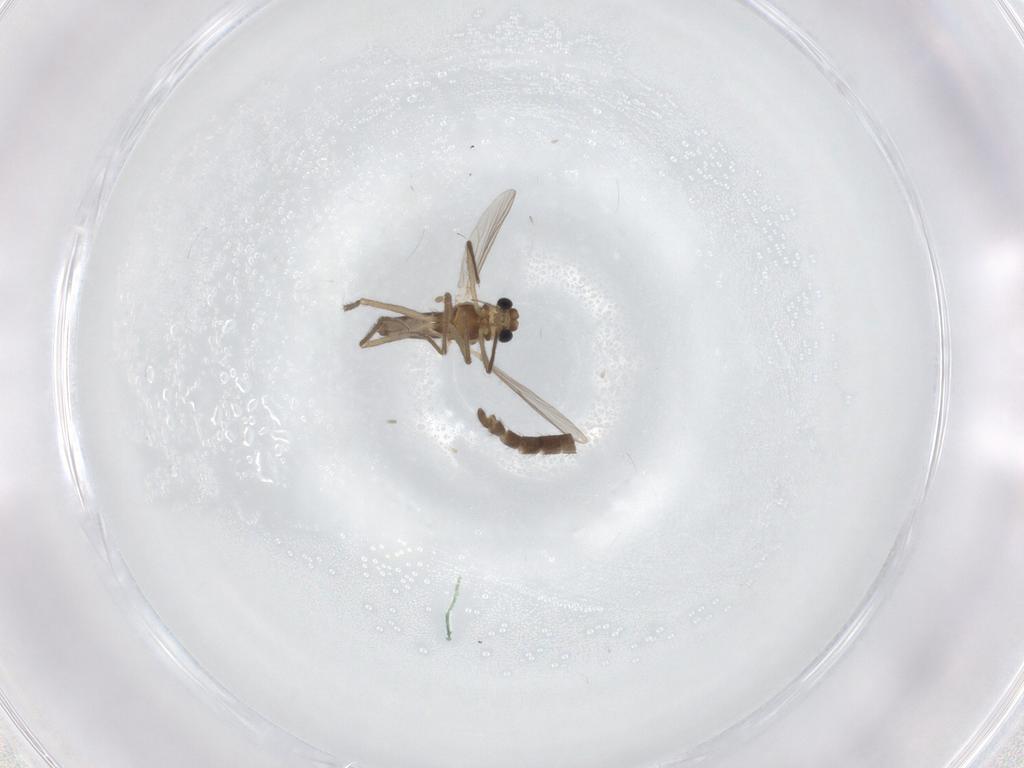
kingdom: Animalia
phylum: Arthropoda
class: Insecta
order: Diptera
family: Chironomidae
